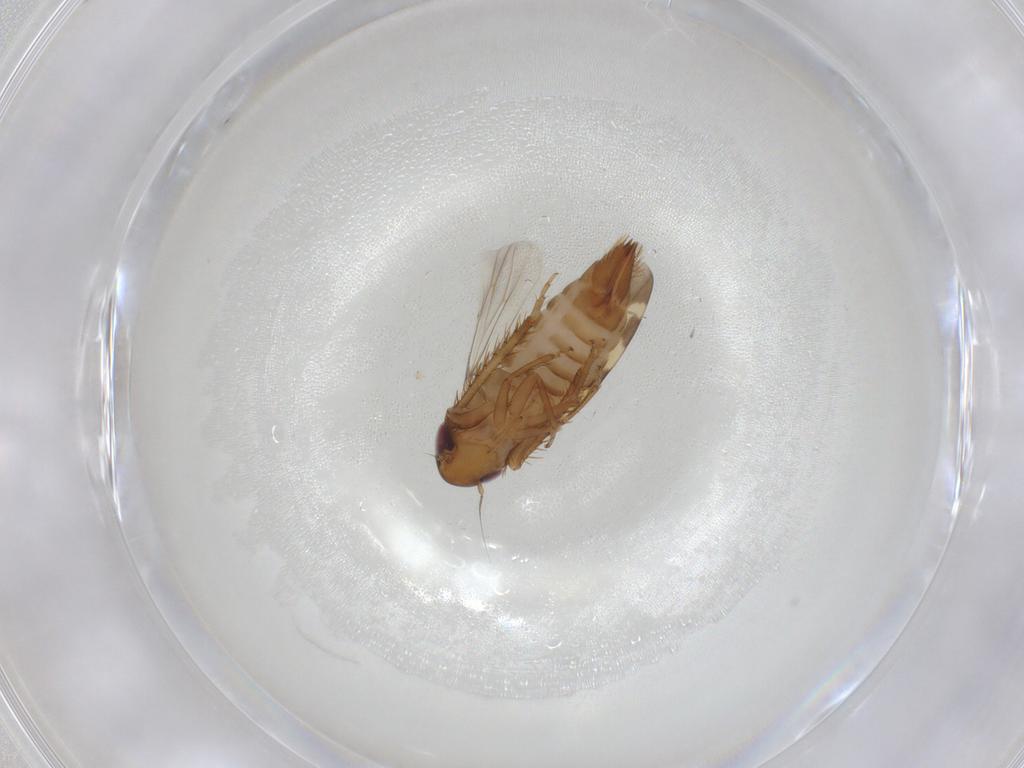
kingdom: Animalia
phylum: Arthropoda
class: Insecta
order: Hemiptera
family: Cicadellidae
